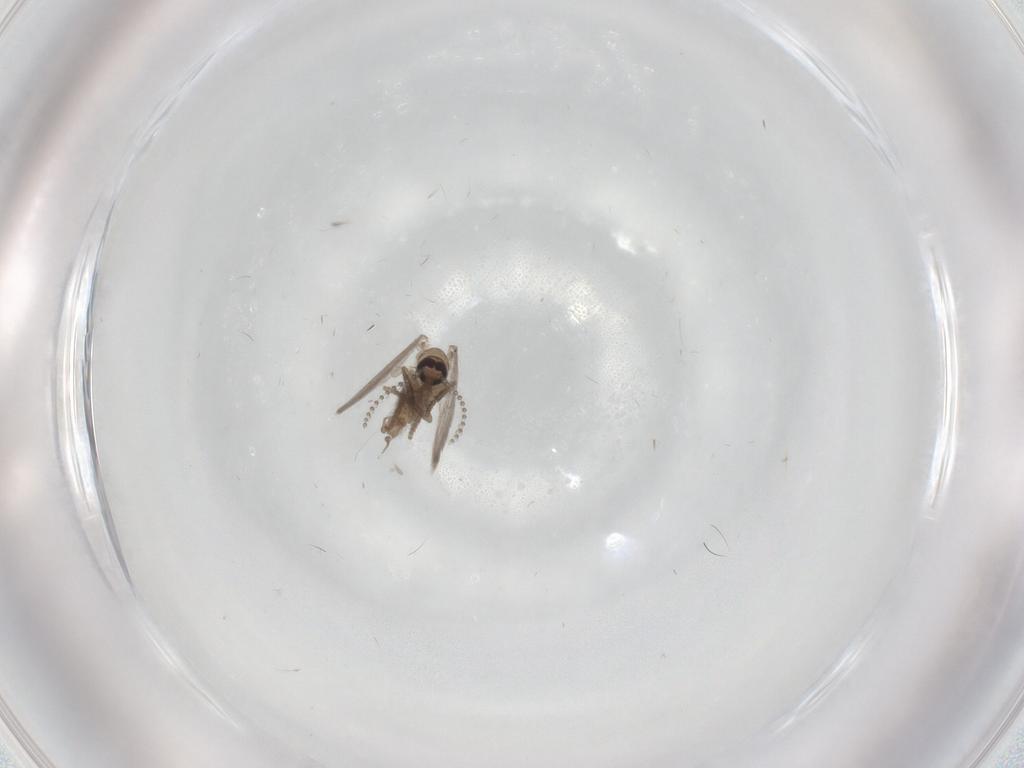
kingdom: Animalia
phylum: Arthropoda
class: Insecta
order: Diptera
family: Psychodidae
